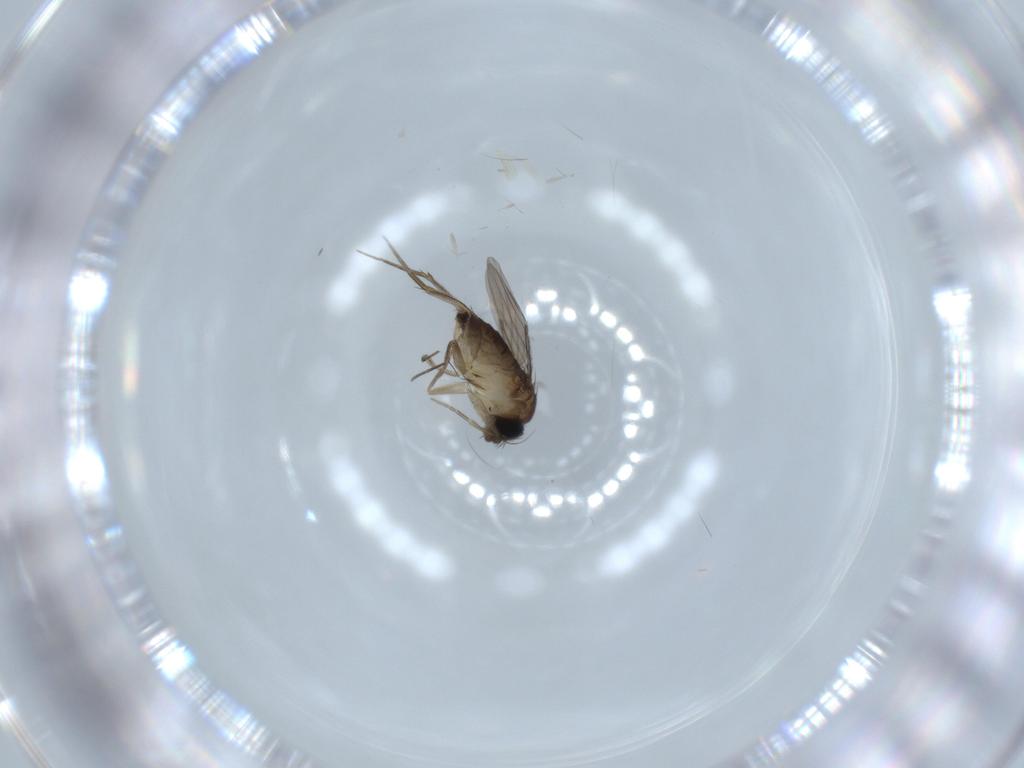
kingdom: Animalia
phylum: Arthropoda
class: Insecta
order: Diptera
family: Phoridae
